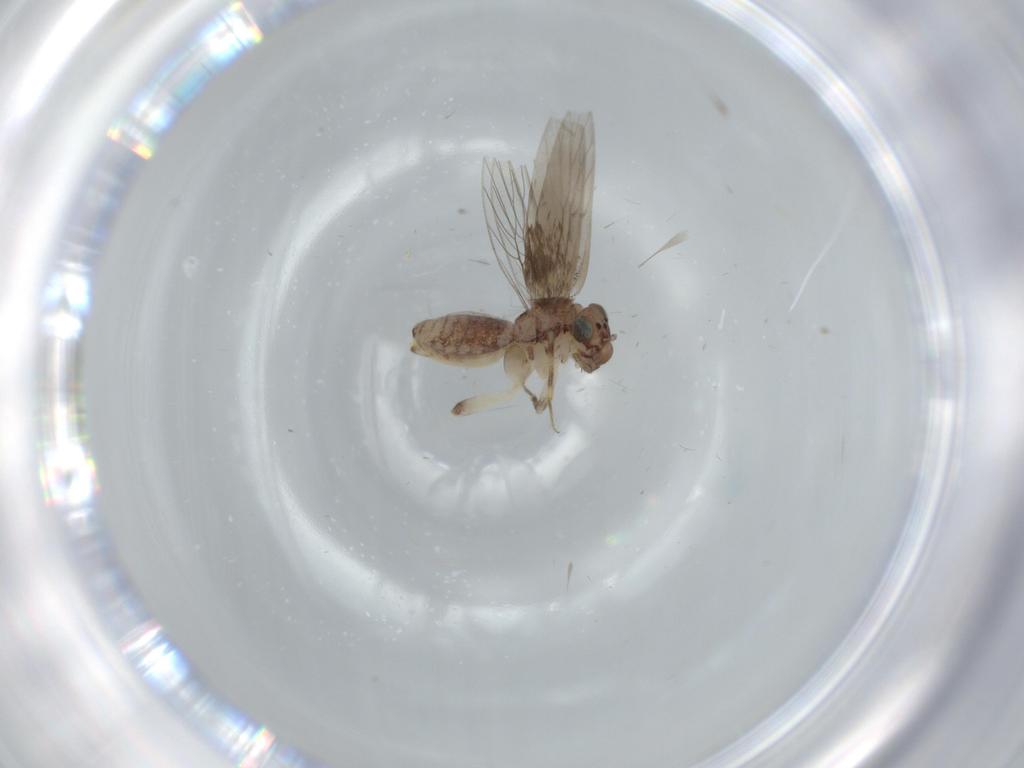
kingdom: Animalia
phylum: Arthropoda
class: Insecta
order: Psocodea
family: Lepidopsocidae
